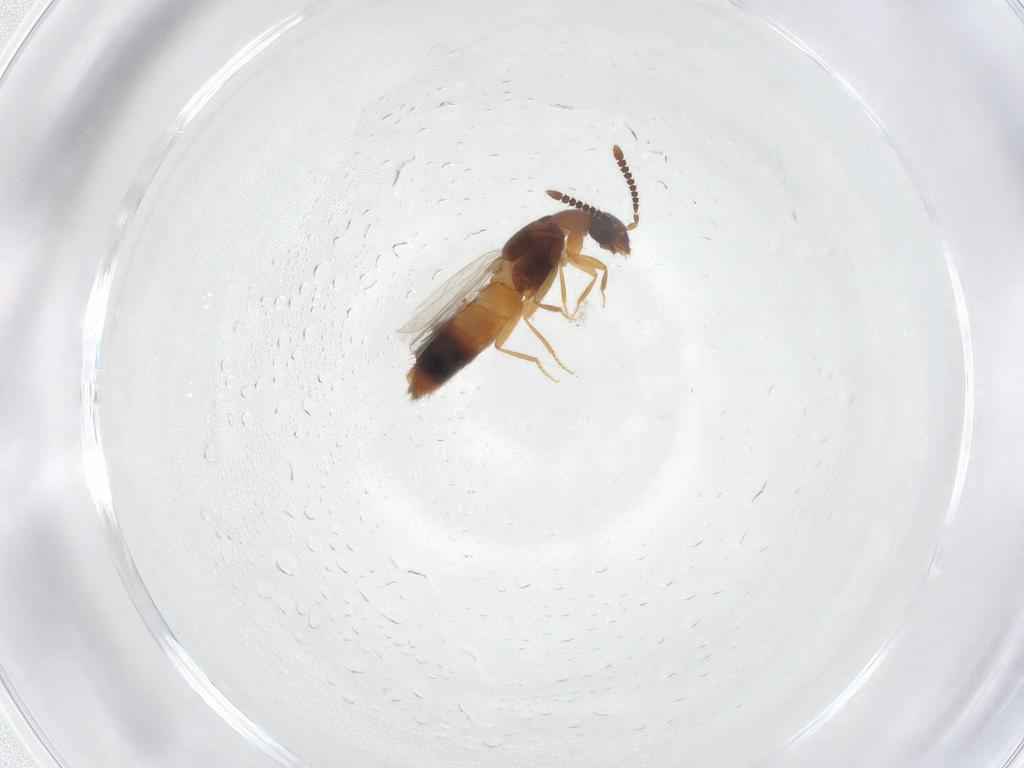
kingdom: Animalia
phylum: Arthropoda
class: Insecta
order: Coleoptera
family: Staphylinidae
